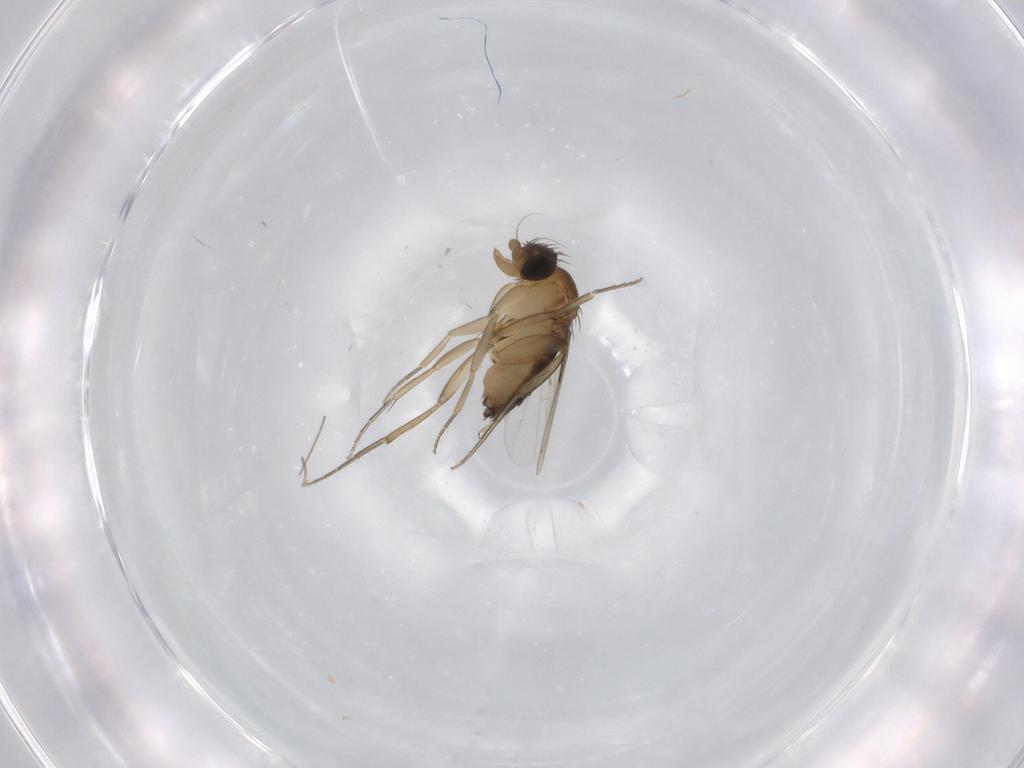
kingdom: Animalia
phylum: Arthropoda
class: Insecta
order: Diptera
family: Chironomidae
